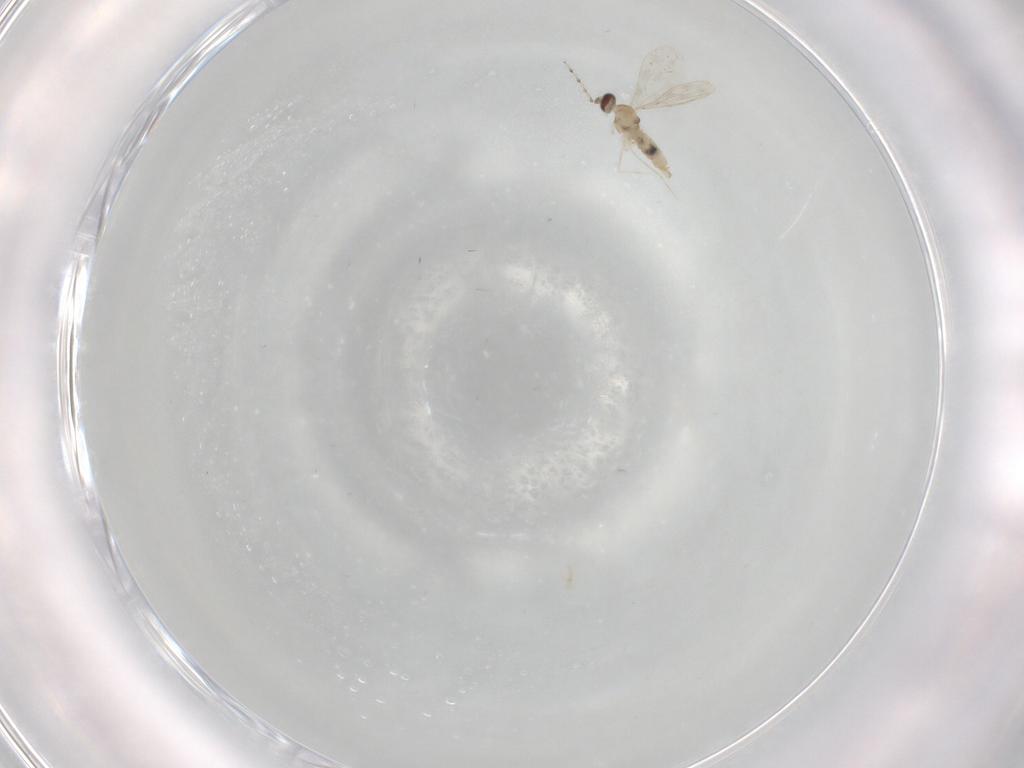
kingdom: Animalia
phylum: Arthropoda
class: Insecta
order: Diptera
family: Cecidomyiidae
